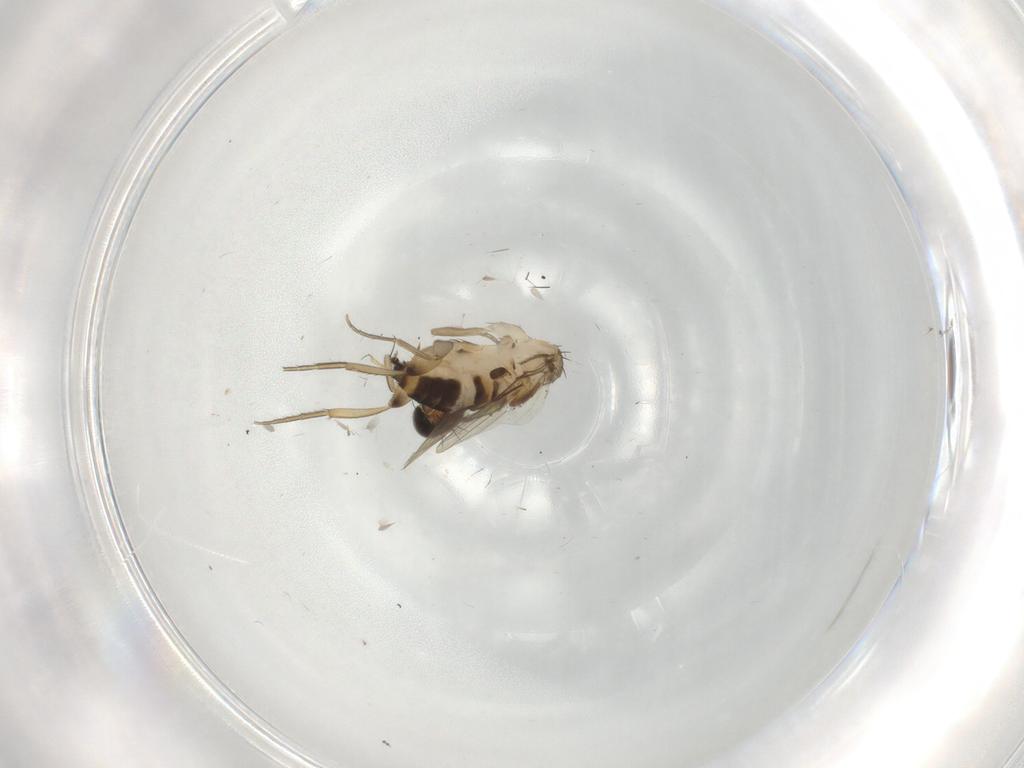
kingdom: Animalia
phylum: Arthropoda
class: Insecta
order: Diptera
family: Phoridae
